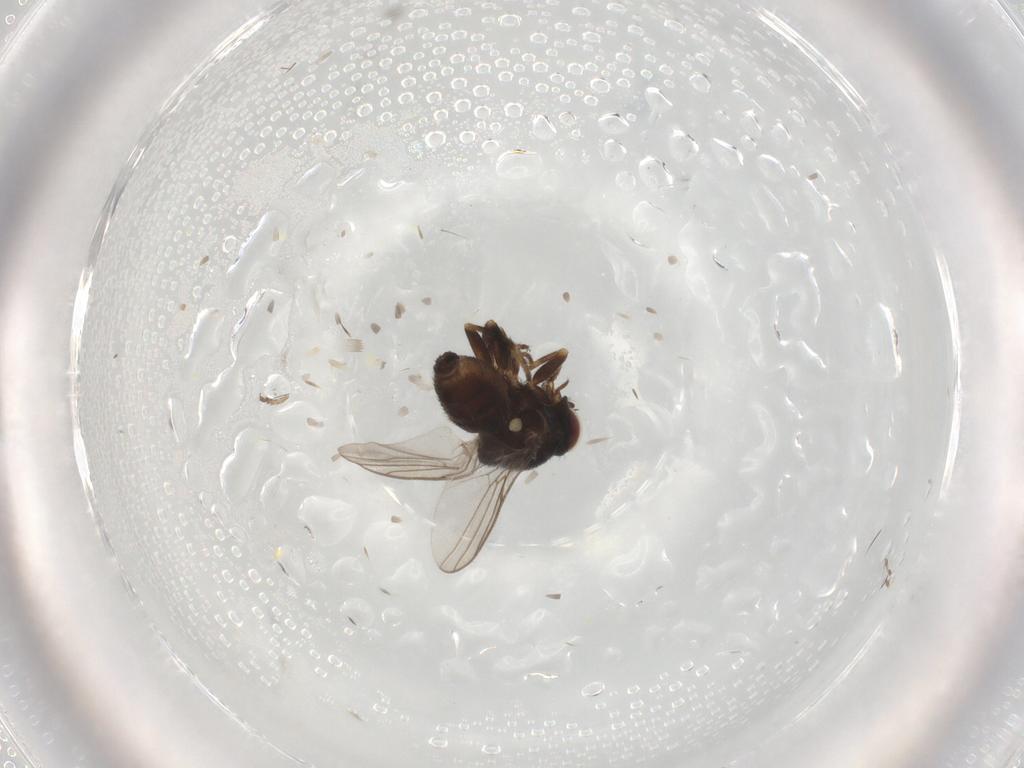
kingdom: Animalia
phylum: Arthropoda
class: Insecta
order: Diptera
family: Chloropidae
